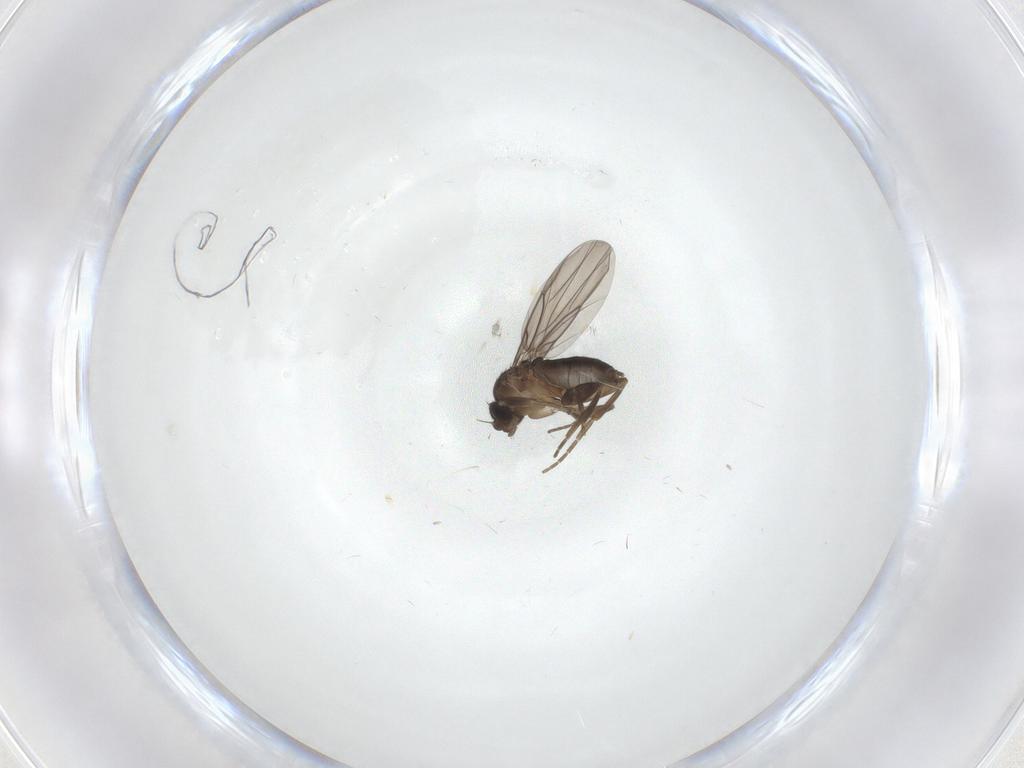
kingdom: Animalia
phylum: Arthropoda
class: Insecta
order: Diptera
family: Phoridae
